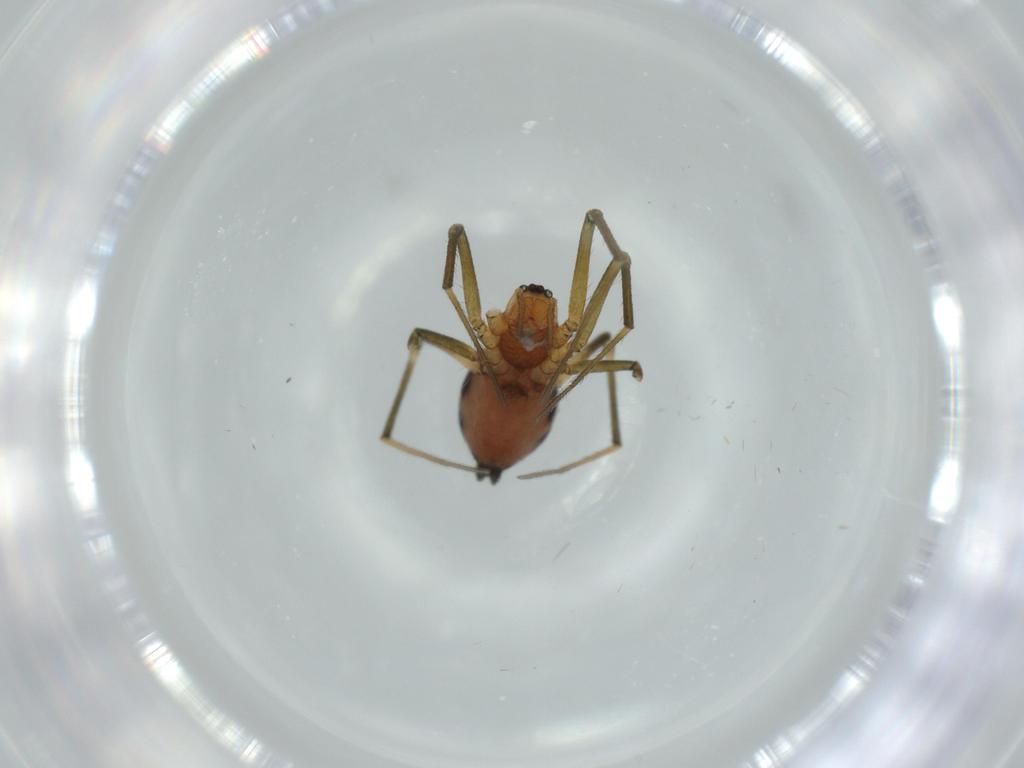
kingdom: Animalia
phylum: Arthropoda
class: Arachnida
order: Araneae
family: Linyphiidae
